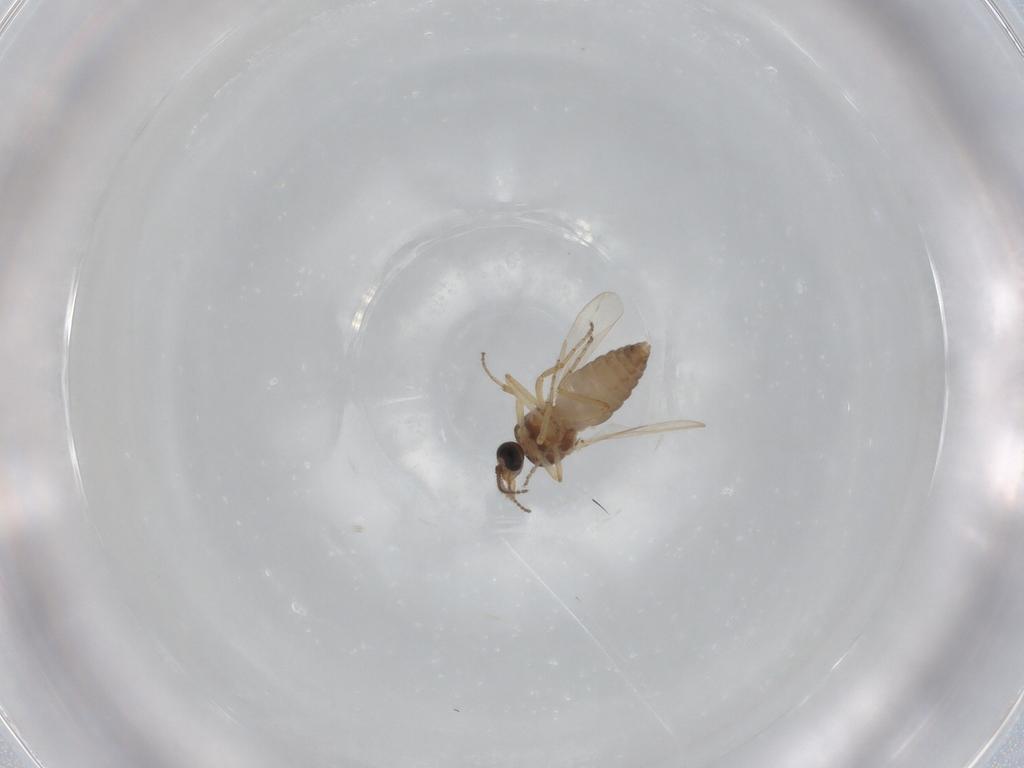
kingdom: Animalia
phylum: Arthropoda
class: Insecta
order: Diptera
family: Ceratopogonidae
